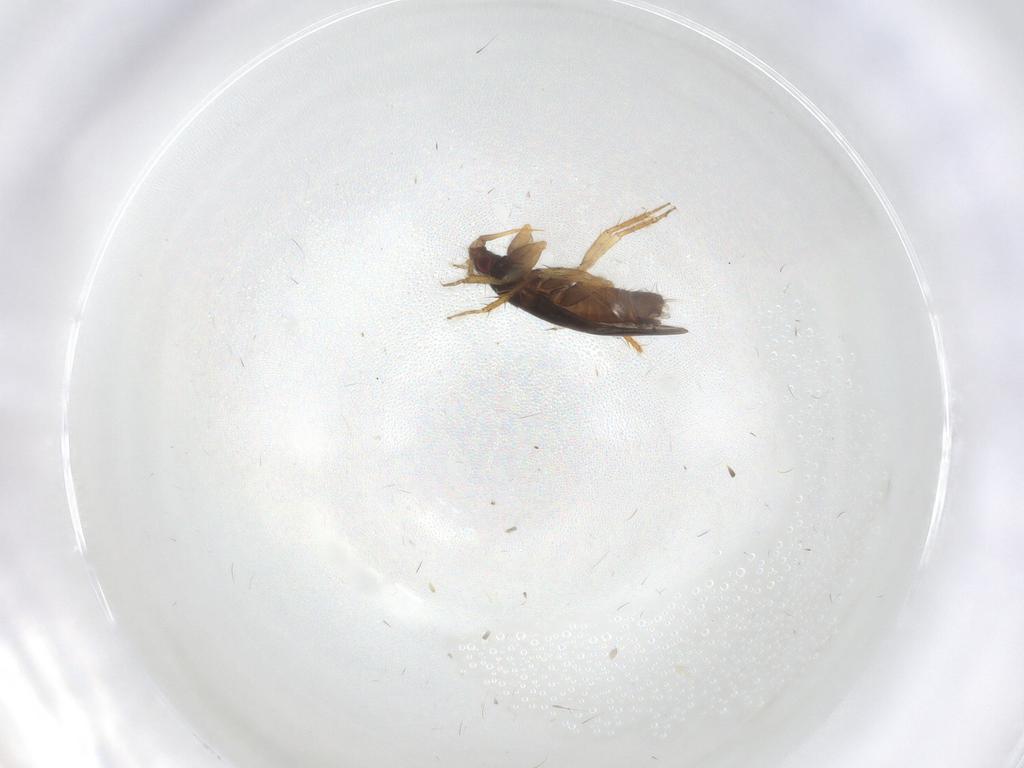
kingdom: Animalia
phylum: Arthropoda
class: Insecta
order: Hemiptera
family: Ceratocombidae
